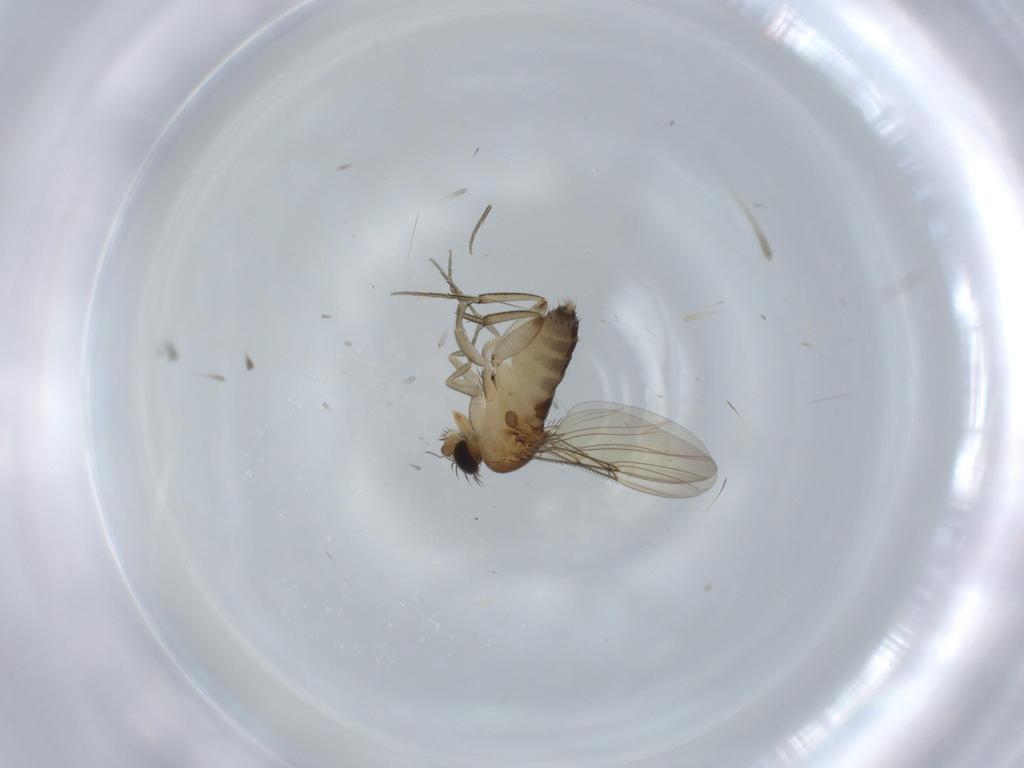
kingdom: Animalia
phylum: Arthropoda
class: Insecta
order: Diptera
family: Phoridae
